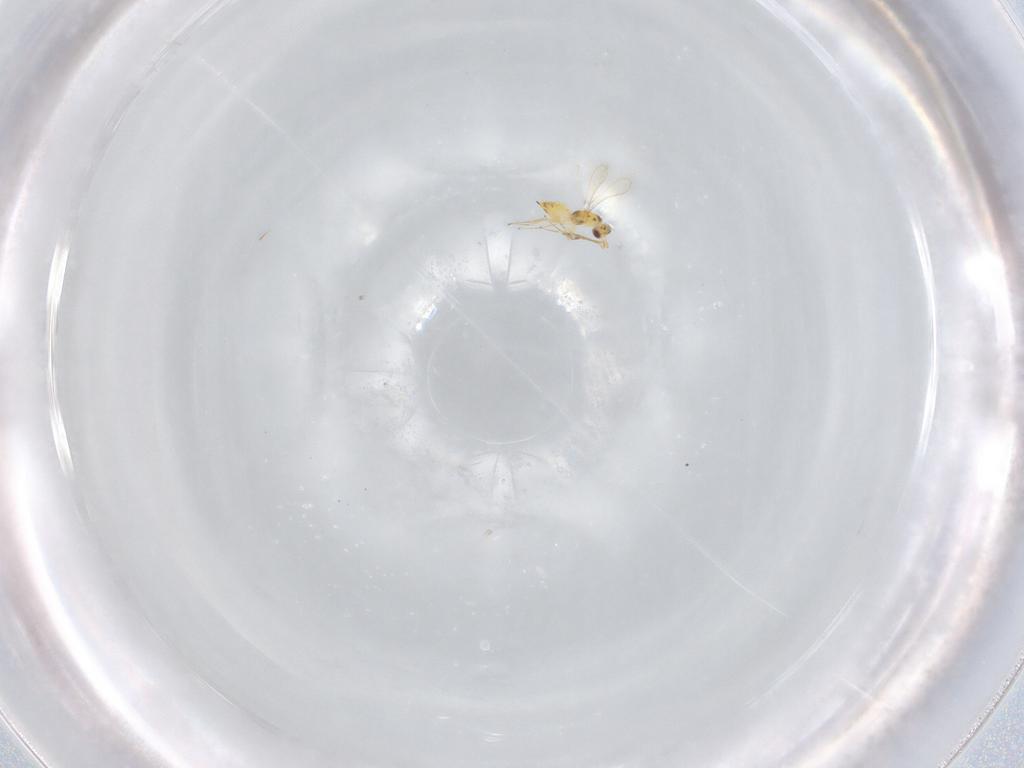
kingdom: Animalia
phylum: Arthropoda
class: Insecta
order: Hymenoptera
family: Mymaridae
